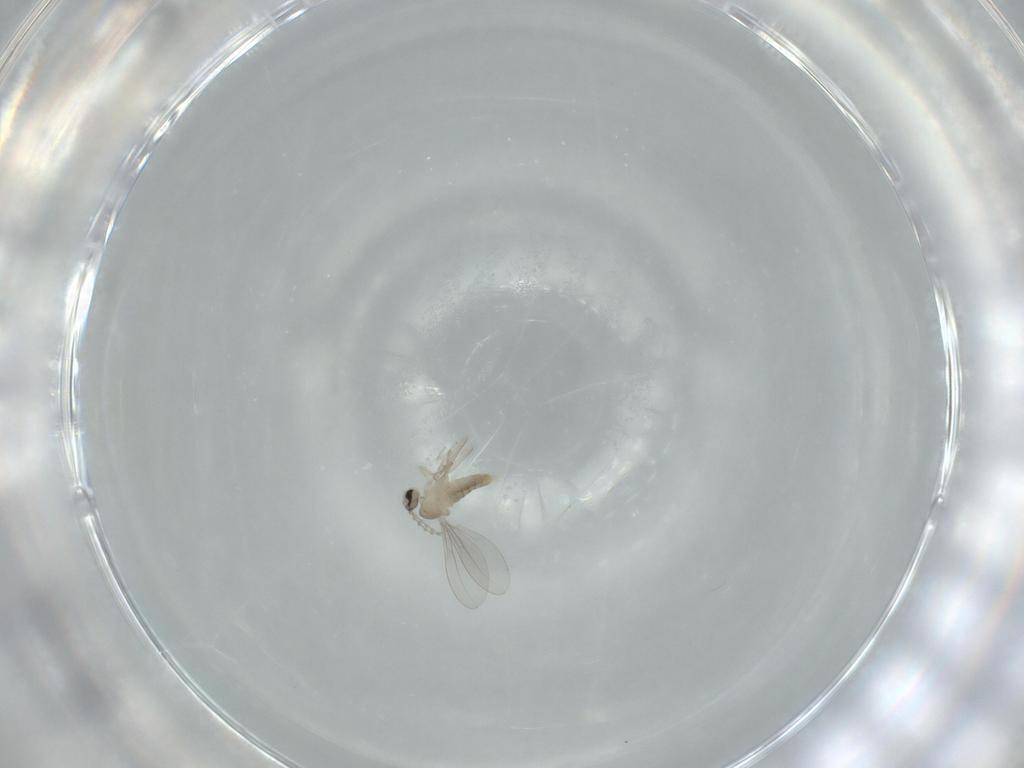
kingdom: Animalia
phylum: Arthropoda
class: Insecta
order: Diptera
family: Cecidomyiidae
